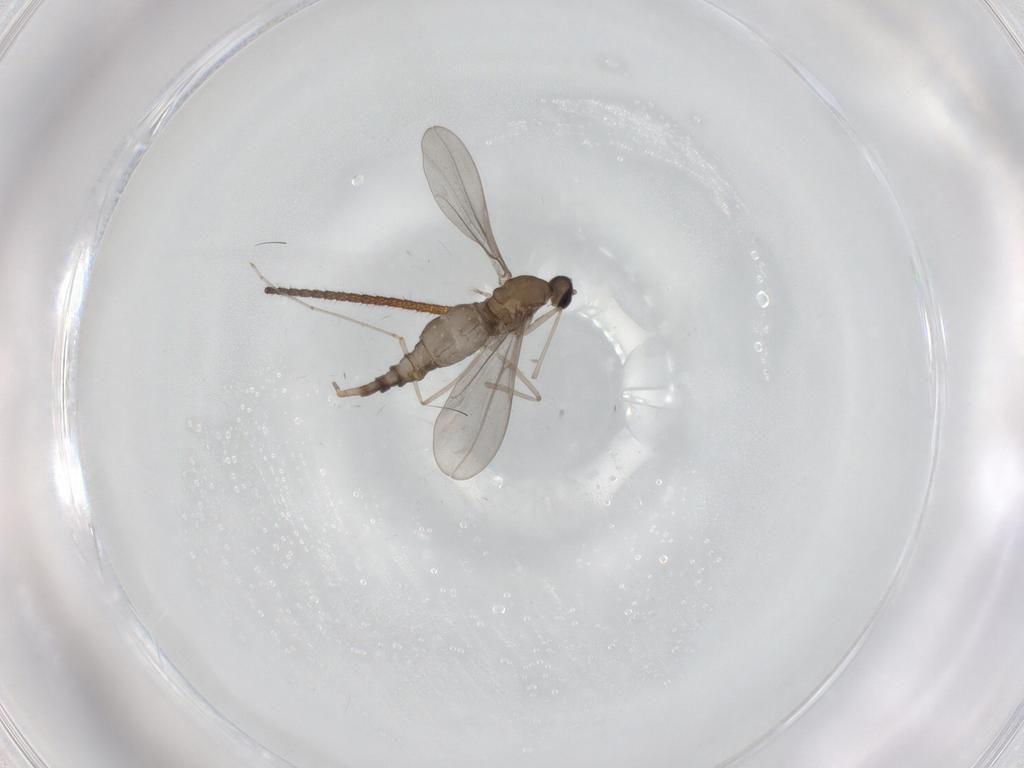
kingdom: Animalia
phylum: Arthropoda
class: Insecta
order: Diptera
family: Cecidomyiidae
